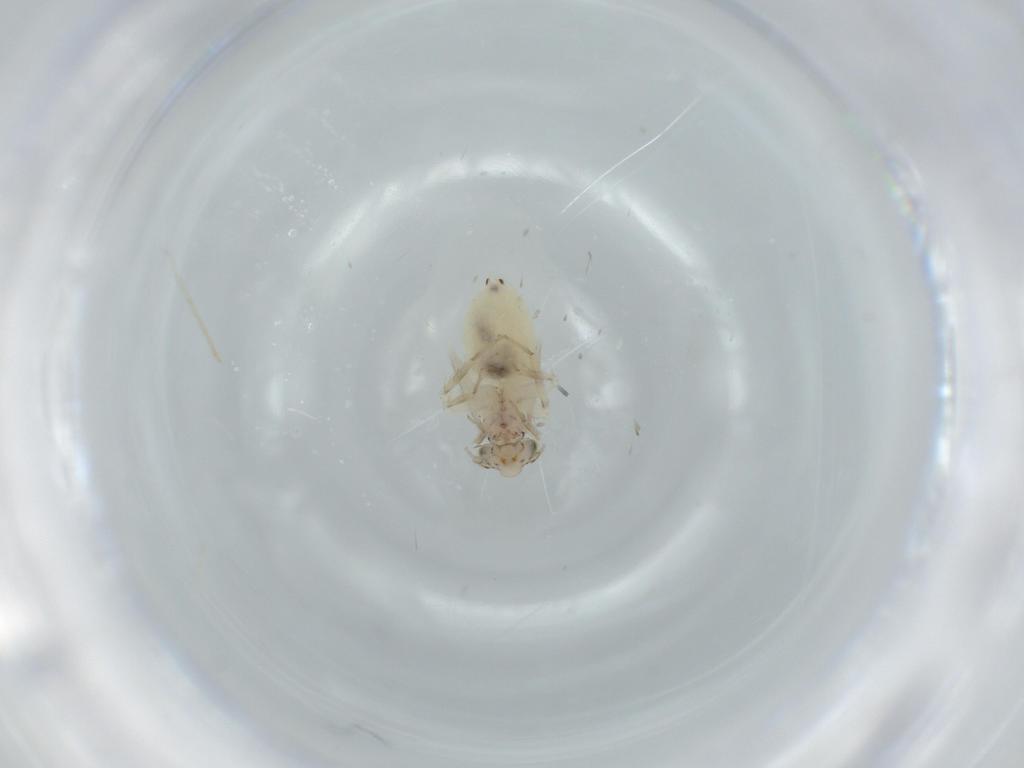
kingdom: Animalia
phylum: Arthropoda
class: Insecta
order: Psocodea
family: Lepidopsocidae
